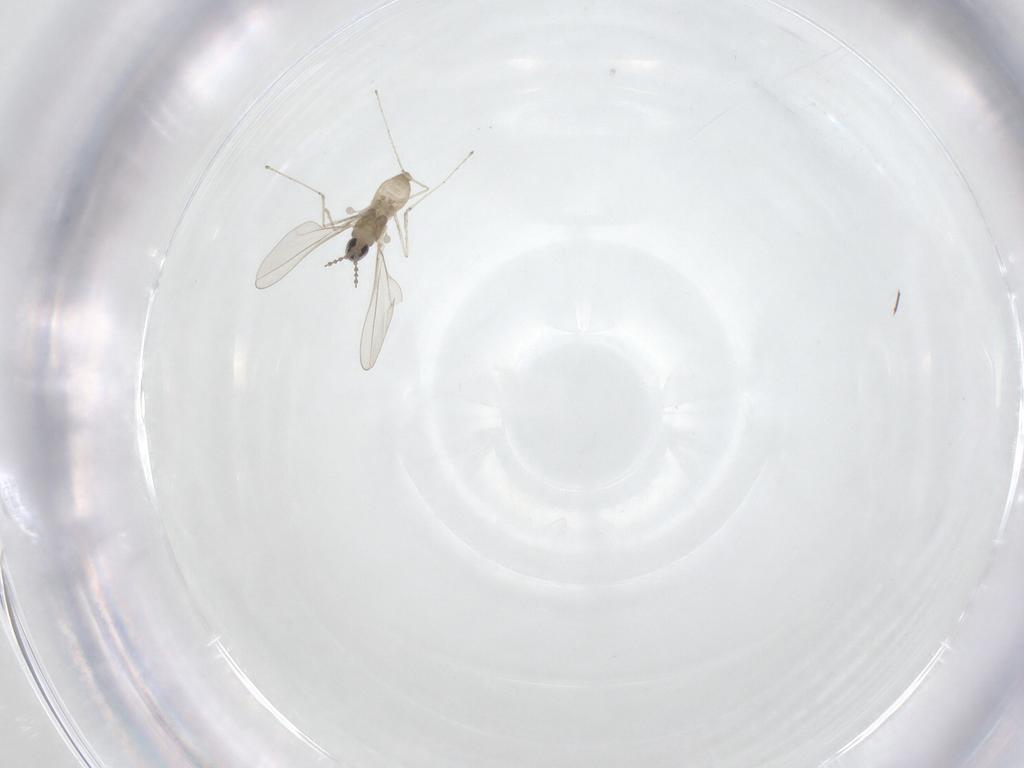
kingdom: Animalia
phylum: Arthropoda
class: Insecta
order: Diptera
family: Cecidomyiidae
